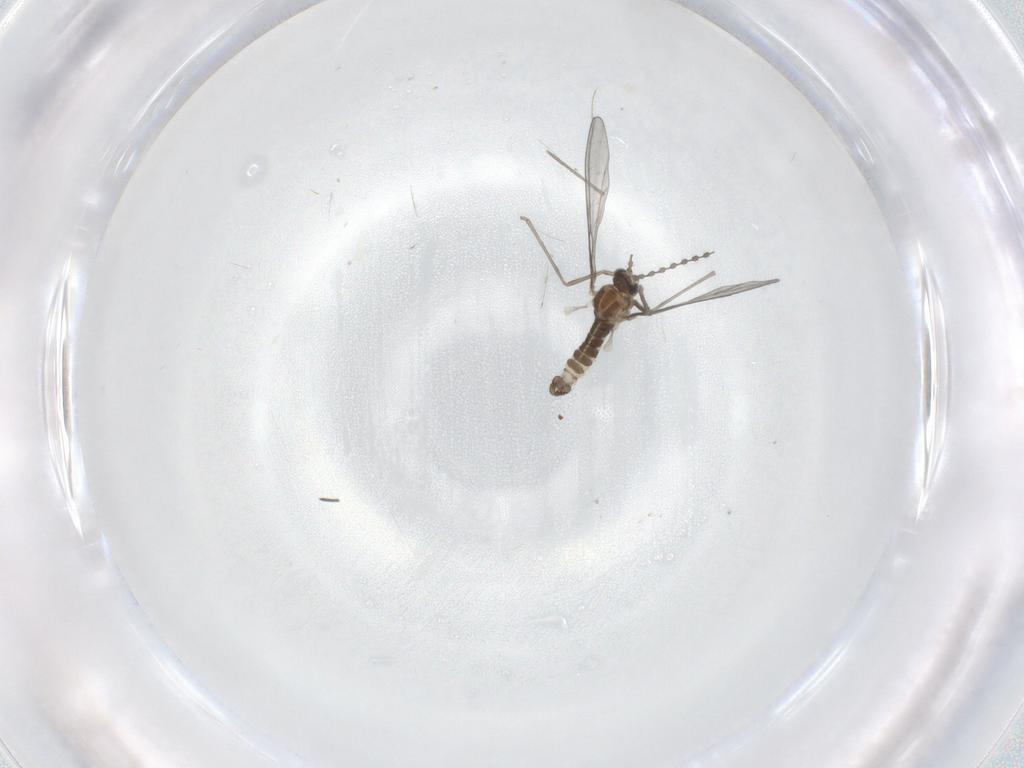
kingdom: Animalia
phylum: Arthropoda
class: Insecta
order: Diptera
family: Cecidomyiidae
